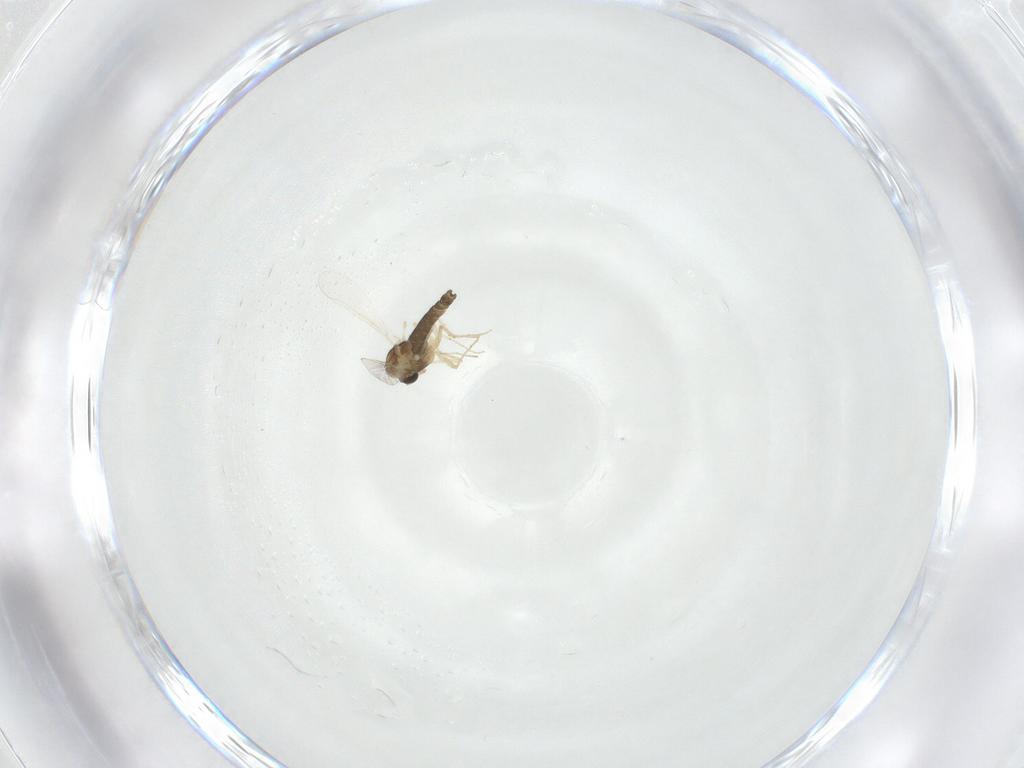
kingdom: Animalia
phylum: Arthropoda
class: Insecta
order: Diptera
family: Chironomidae
